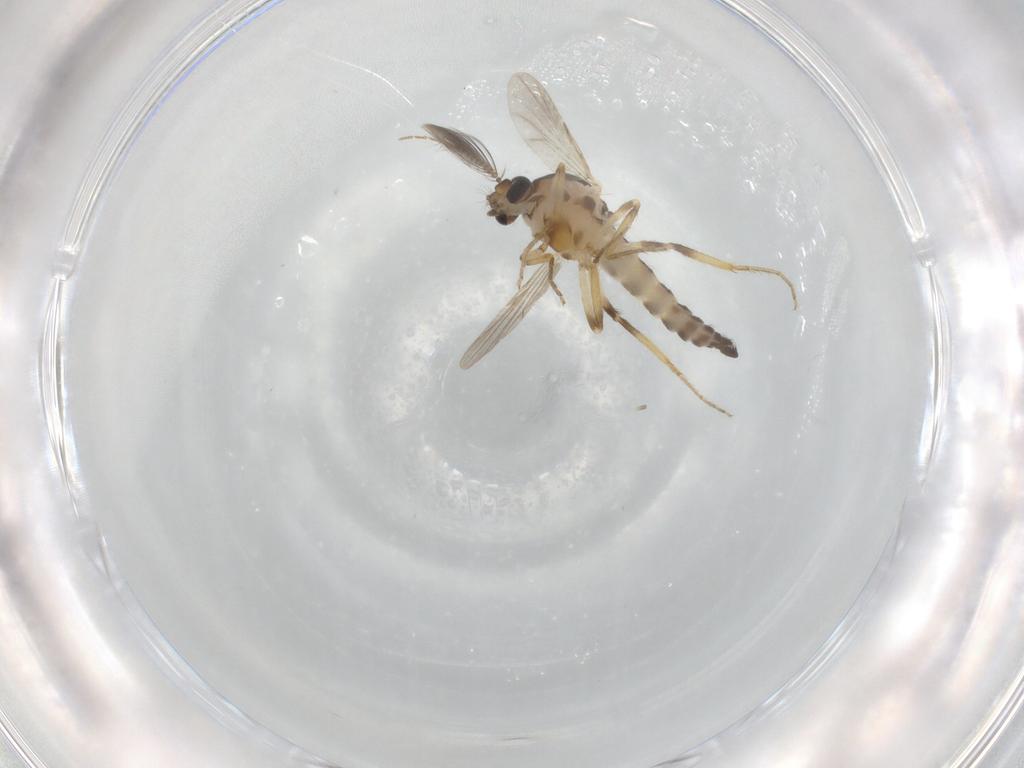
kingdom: Animalia
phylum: Arthropoda
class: Insecta
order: Diptera
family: Ceratopogonidae
